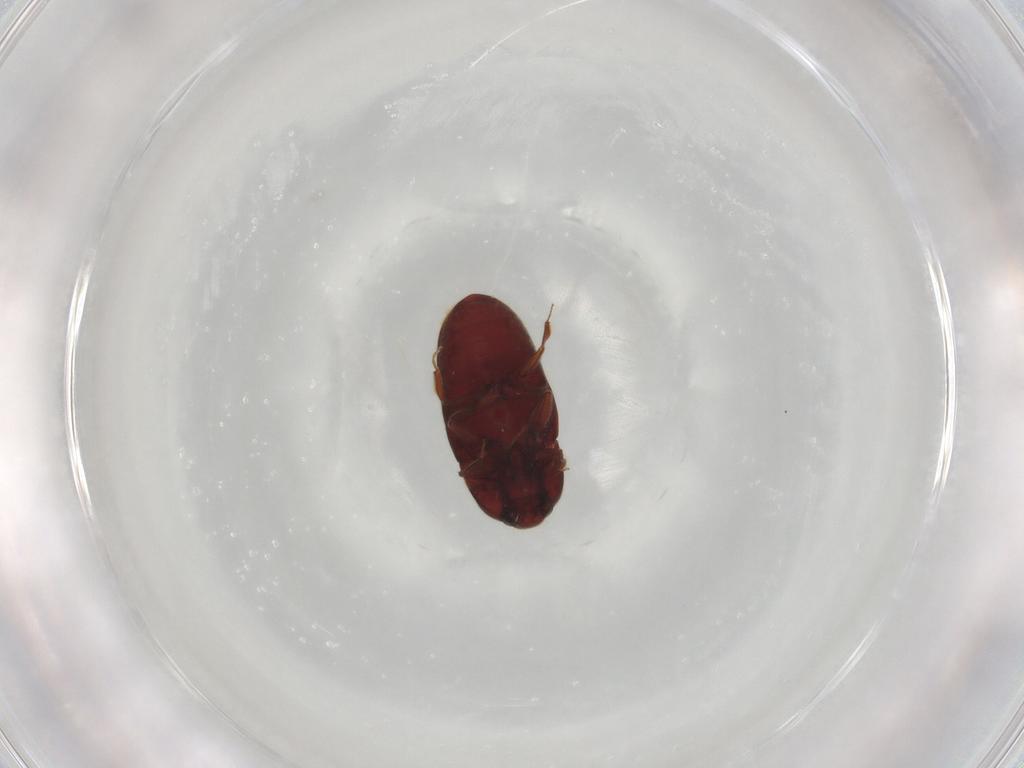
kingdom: Animalia
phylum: Arthropoda
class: Insecta
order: Coleoptera
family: Throscidae
